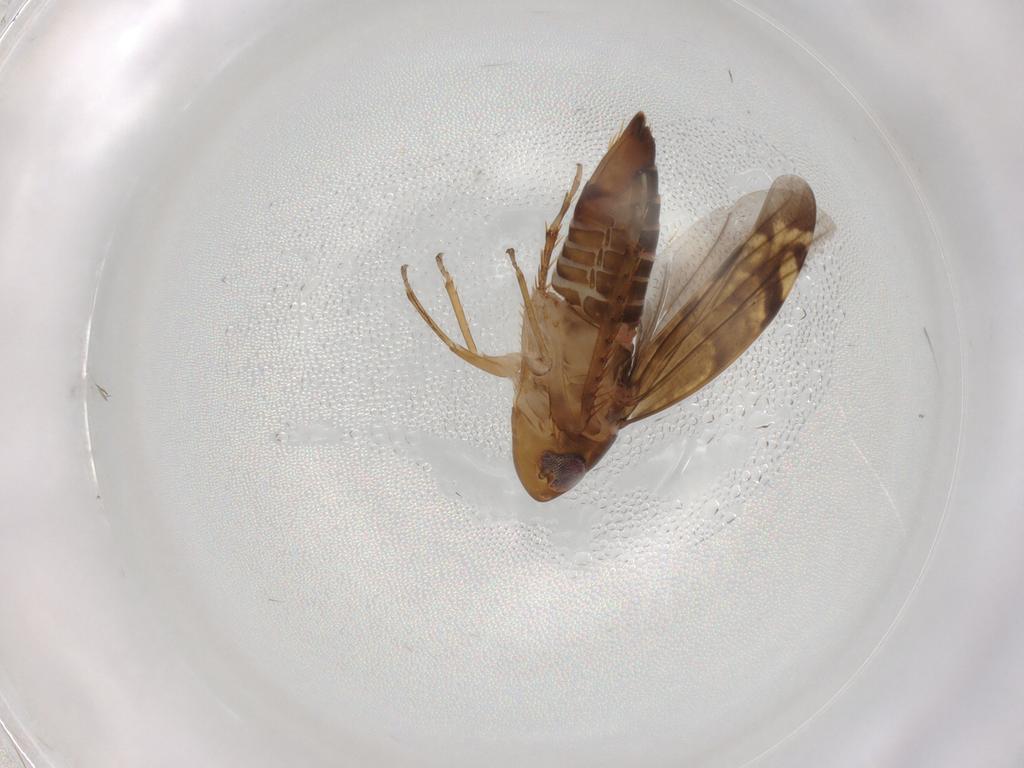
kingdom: Animalia
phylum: Arthropoda
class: Insecta
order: Hemiptera
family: Cicadellidae
